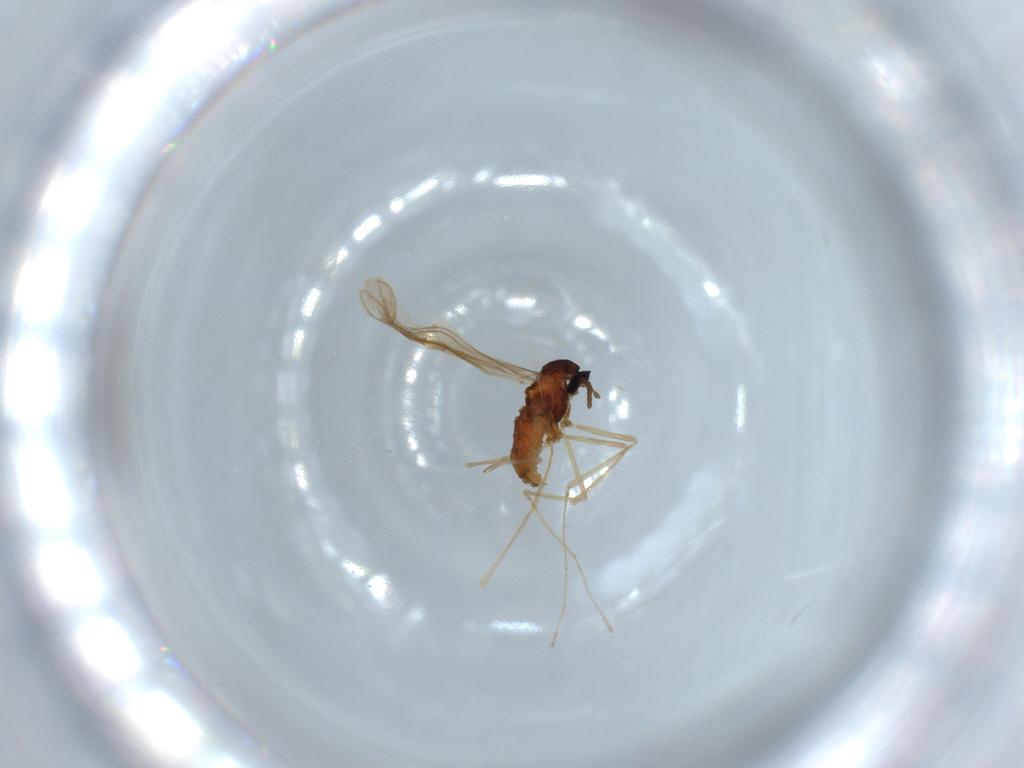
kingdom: Animalia
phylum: Arthropoda
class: Insecta
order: Diptera
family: Cecidomyiidae
